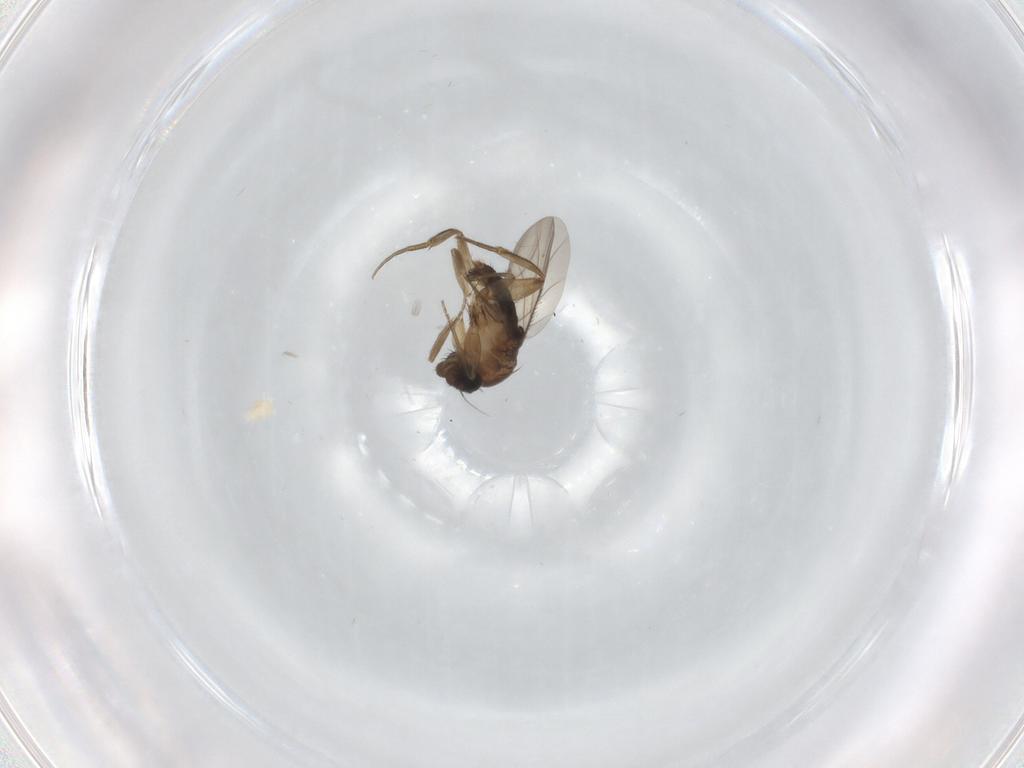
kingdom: Animalia
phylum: Arthropoda
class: Insecta
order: Diptera
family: Phoridae
